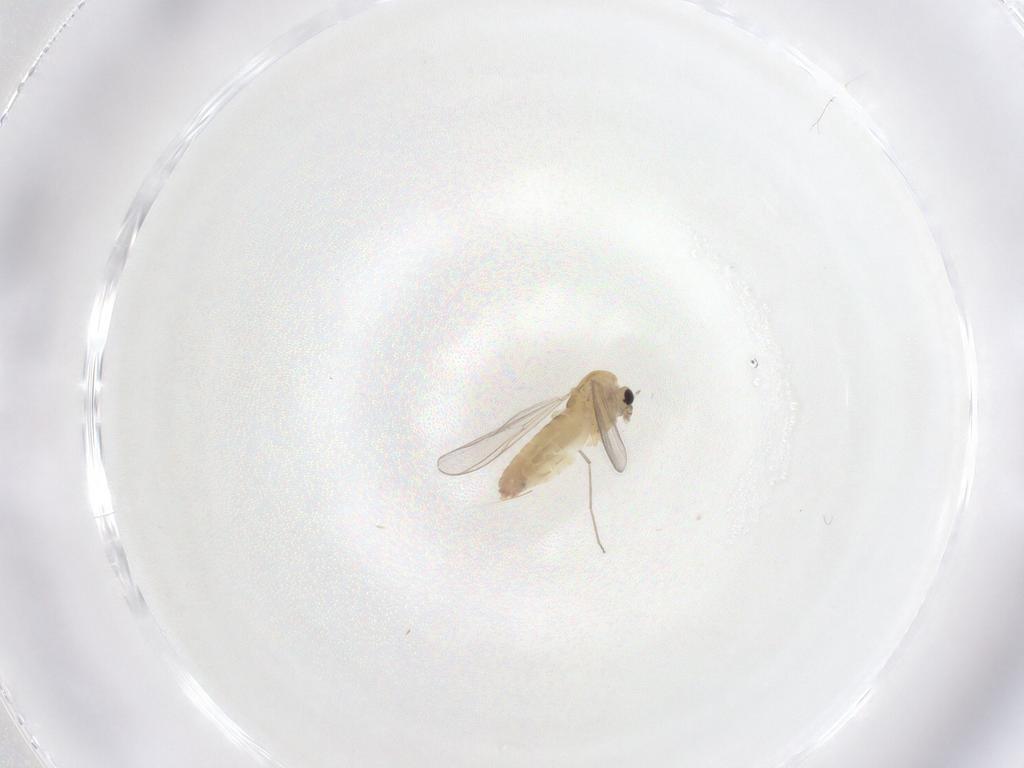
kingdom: Animalia
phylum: Arthropoda
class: Insecta
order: Diptera
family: Chironomidae
